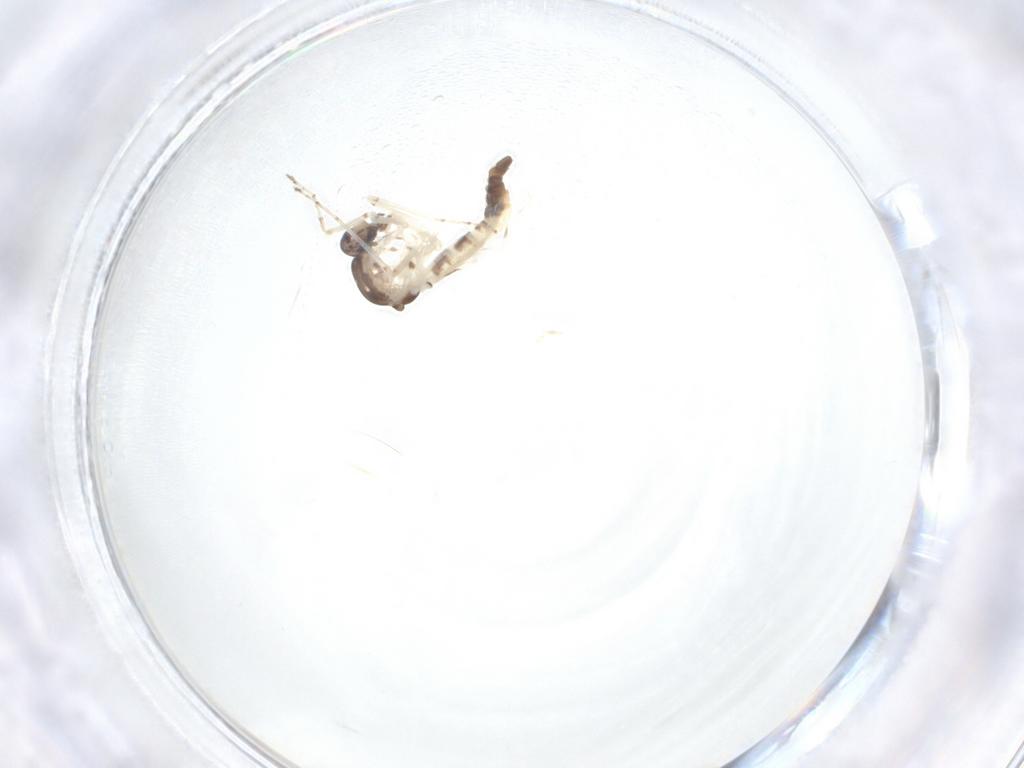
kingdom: Animalia
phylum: Arthropoda
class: Insecta
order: Diptera
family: Ceratopogonidae
